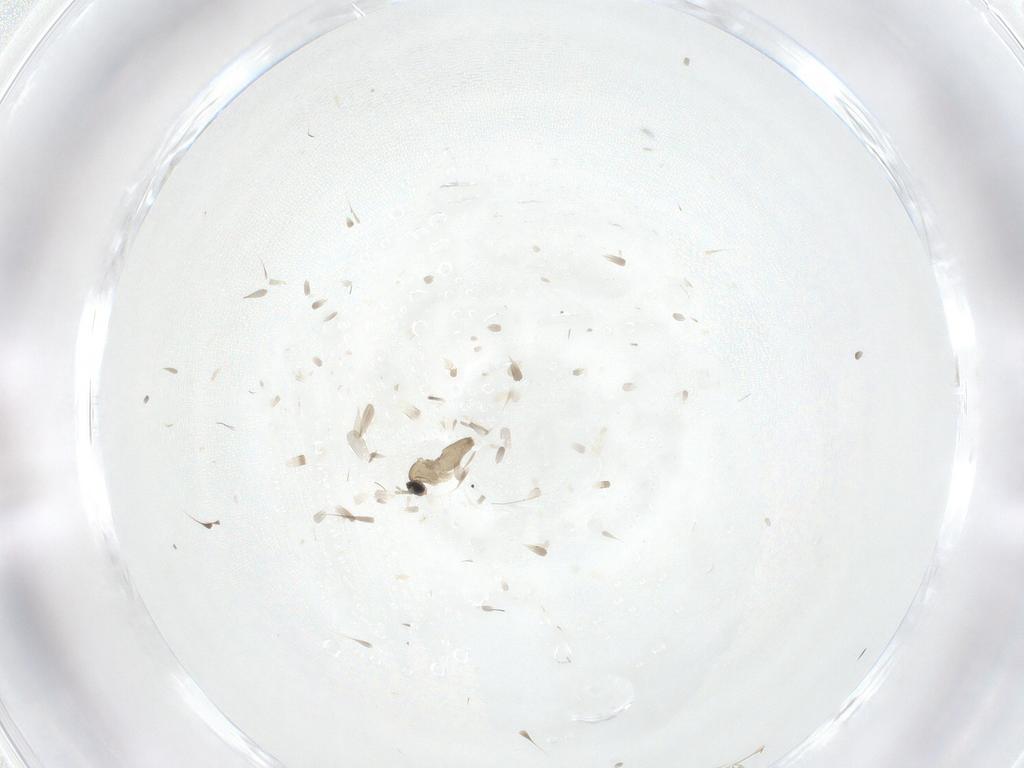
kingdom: Animalia
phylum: Arthropoda
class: Insecta
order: Diptera
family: Cecidomyiidae
